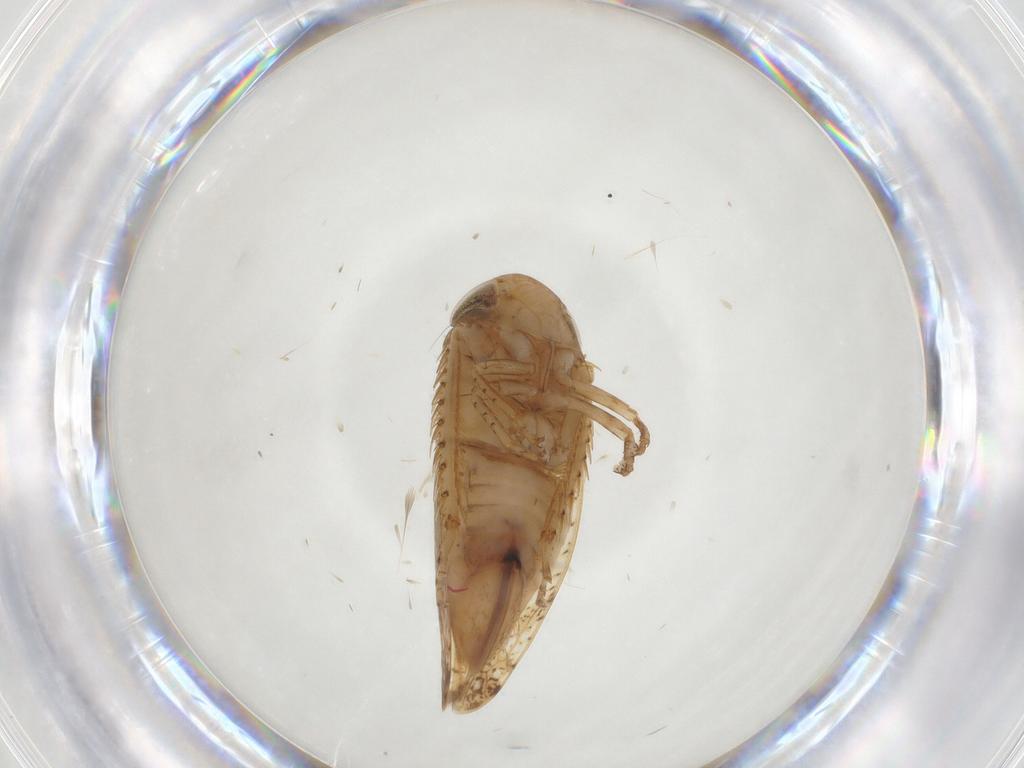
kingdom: Animalia
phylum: Arthropoda
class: Insecta
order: Hemiptera
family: Cicadellidae
